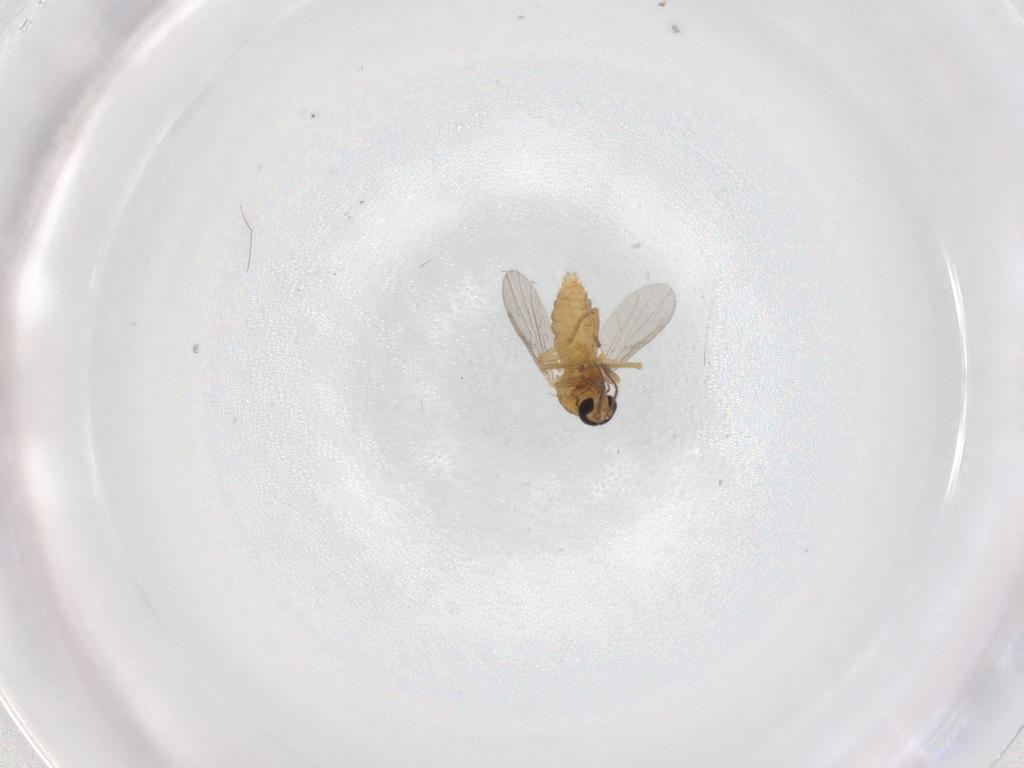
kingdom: Animalia
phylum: Arthropoda
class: Insecta
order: Diptera
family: Ceratopogonidae
